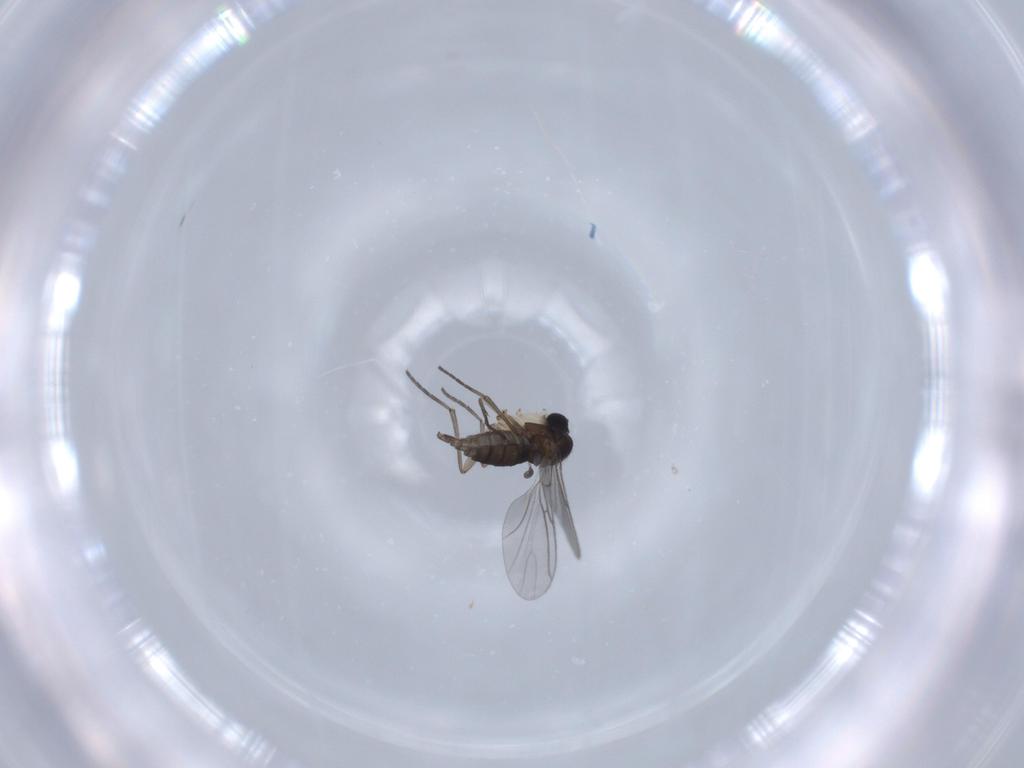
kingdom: Animalia
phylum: Arthropoda
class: Insecta
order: Diptera
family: Sciaridae
